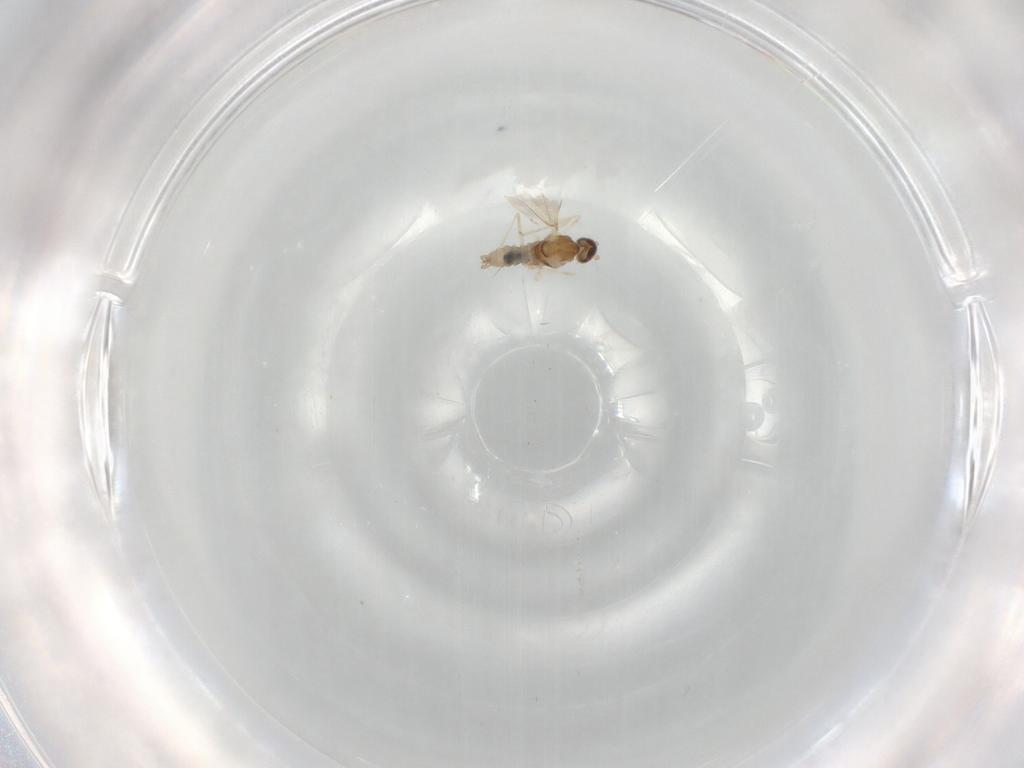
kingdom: Animalia
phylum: Arthropoda
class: Insecta
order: Diptera
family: Cecidomyiidae
